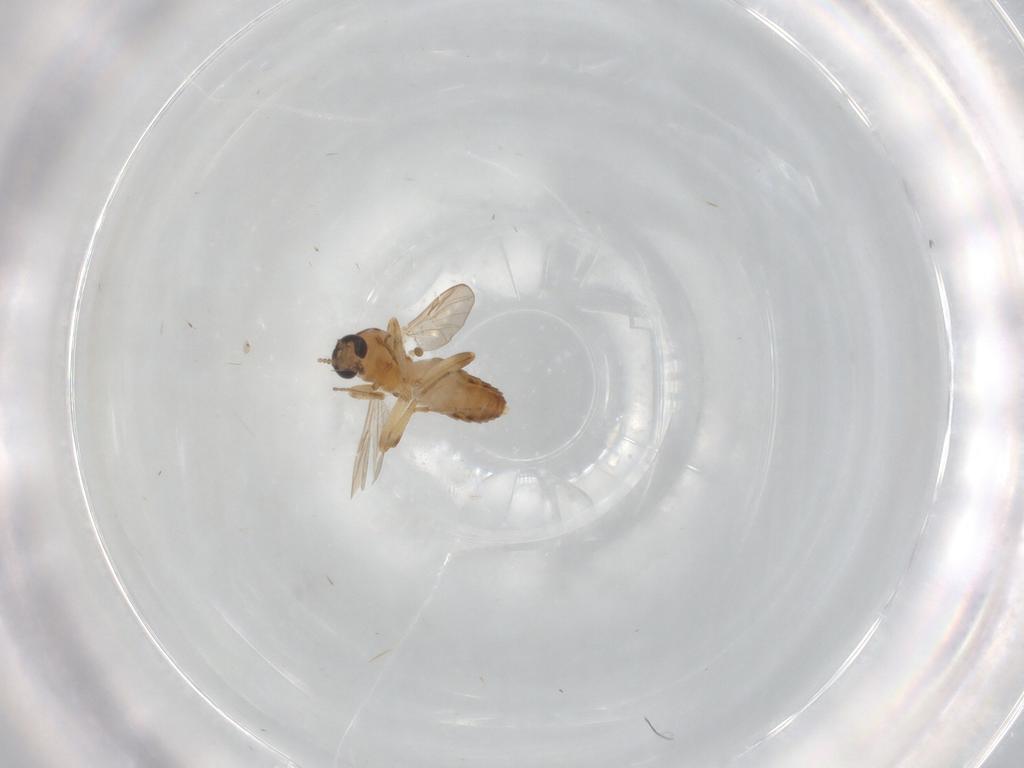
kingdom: Animalia
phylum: Arthropoda
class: Insecta
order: Diptera
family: Ceratopogonidae
